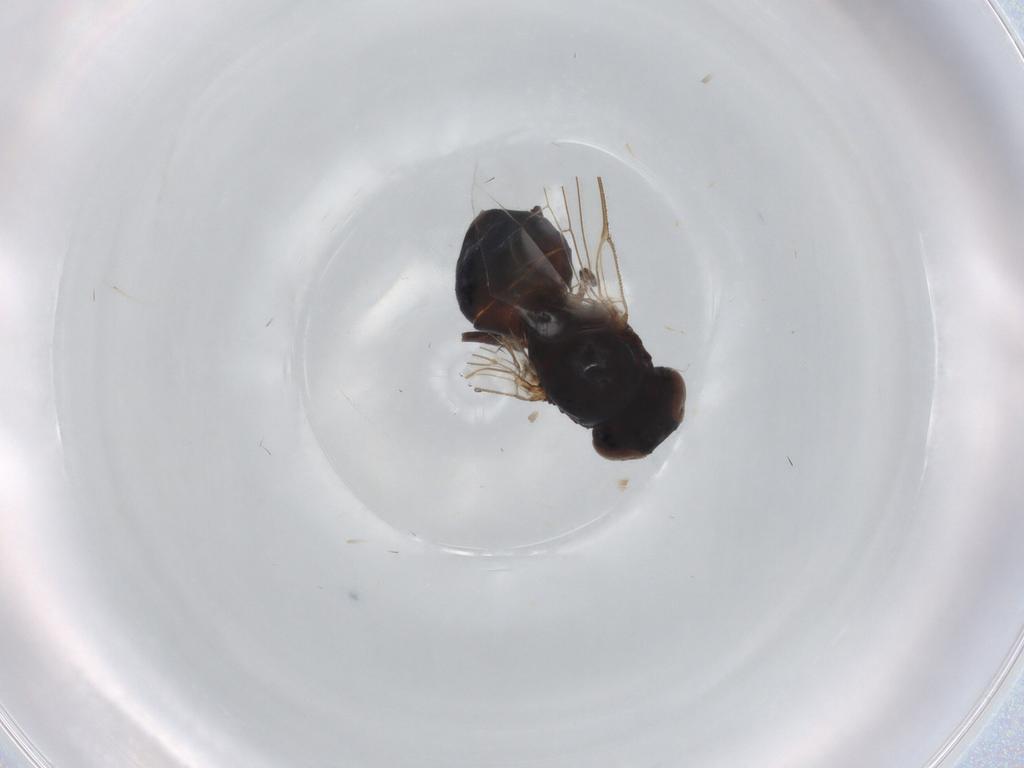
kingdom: Animalia
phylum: Arthropoda
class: Insecta
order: Diptera
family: Agromyzidae
